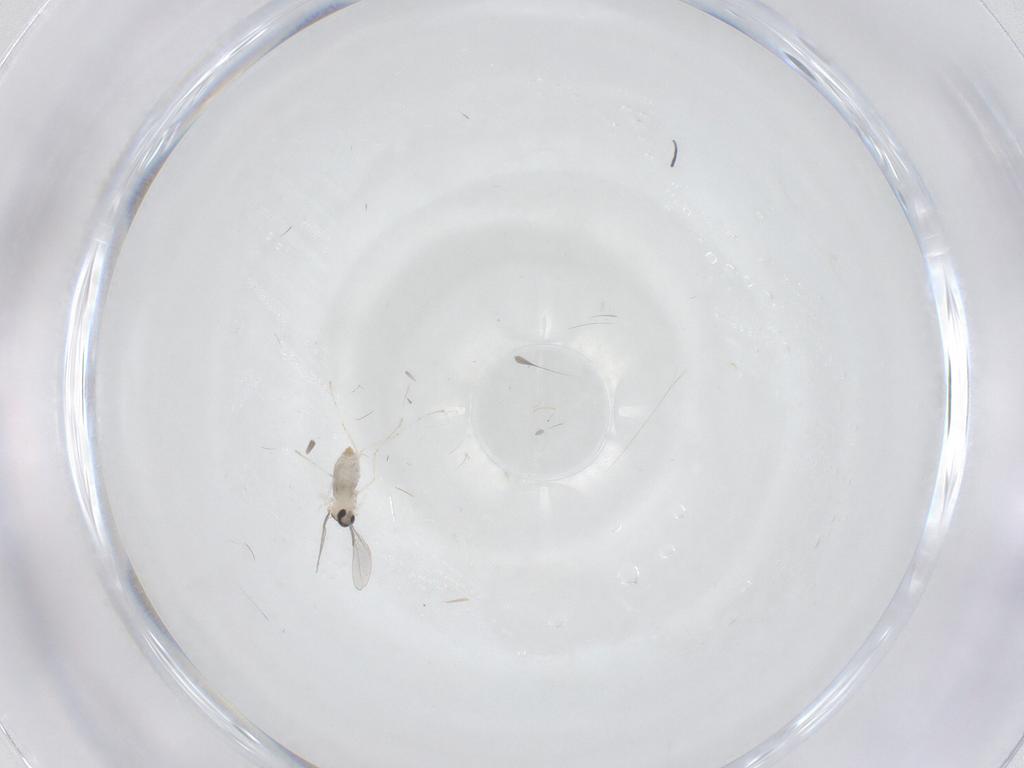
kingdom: Animalia
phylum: Arthropoda
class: Insecta
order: Diptera
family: Cecidomyiidae
